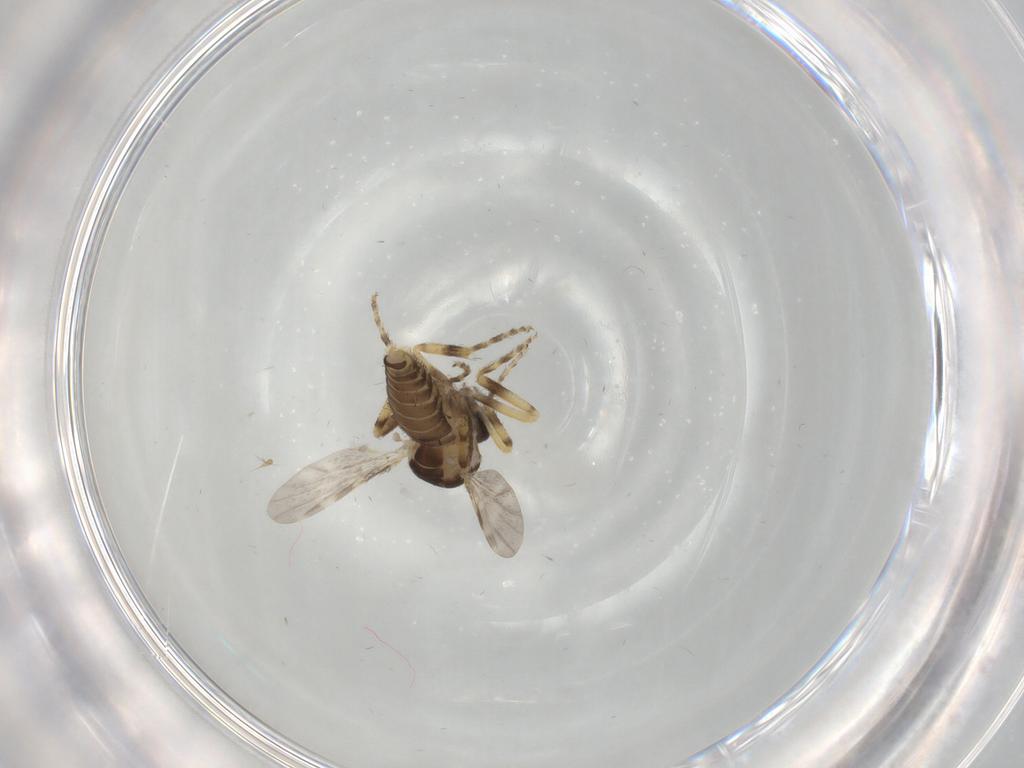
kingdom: Animalia
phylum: Arthropoda
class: Insecta
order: Diptera
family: Ceratopogonidae
